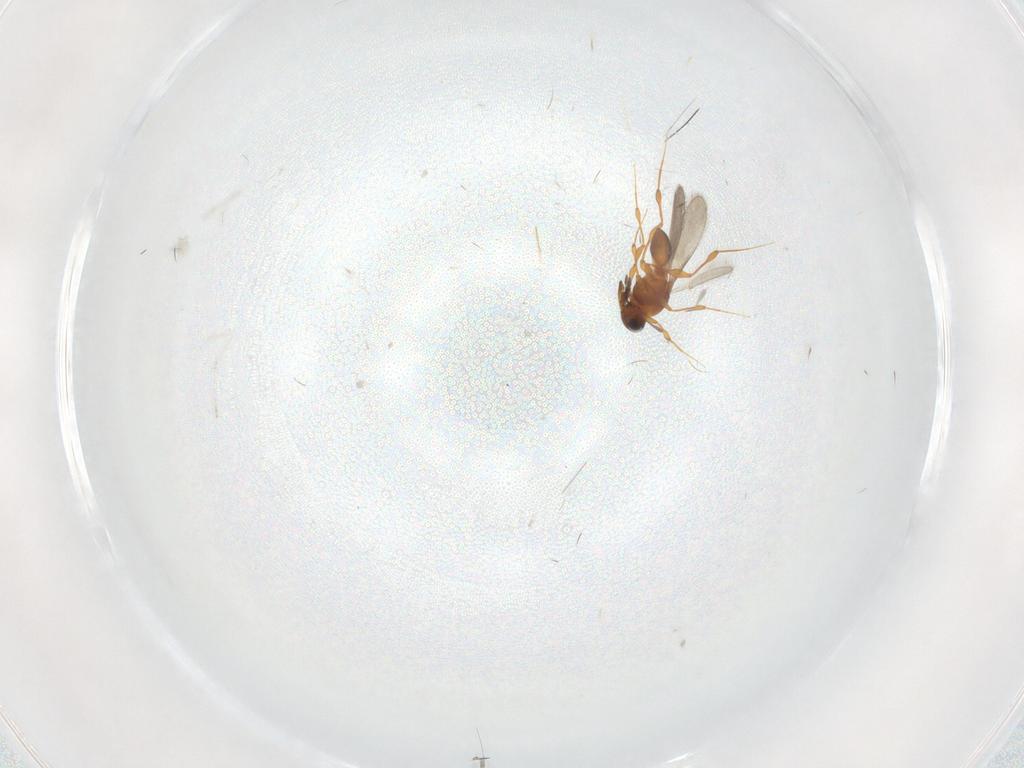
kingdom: Animalia
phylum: Arthropoda
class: Insecta
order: Hymenoptera
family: Platygastridae
